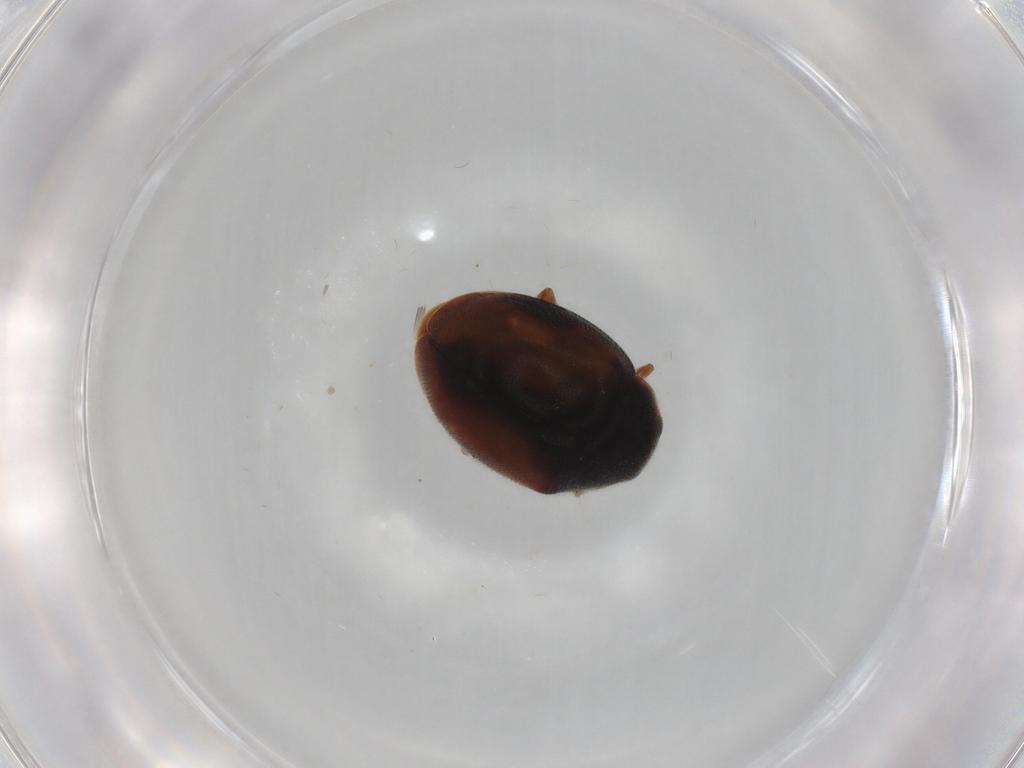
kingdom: Animalia
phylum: Arthropoda
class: Insecta
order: Coleoptera
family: Coccinellidae
